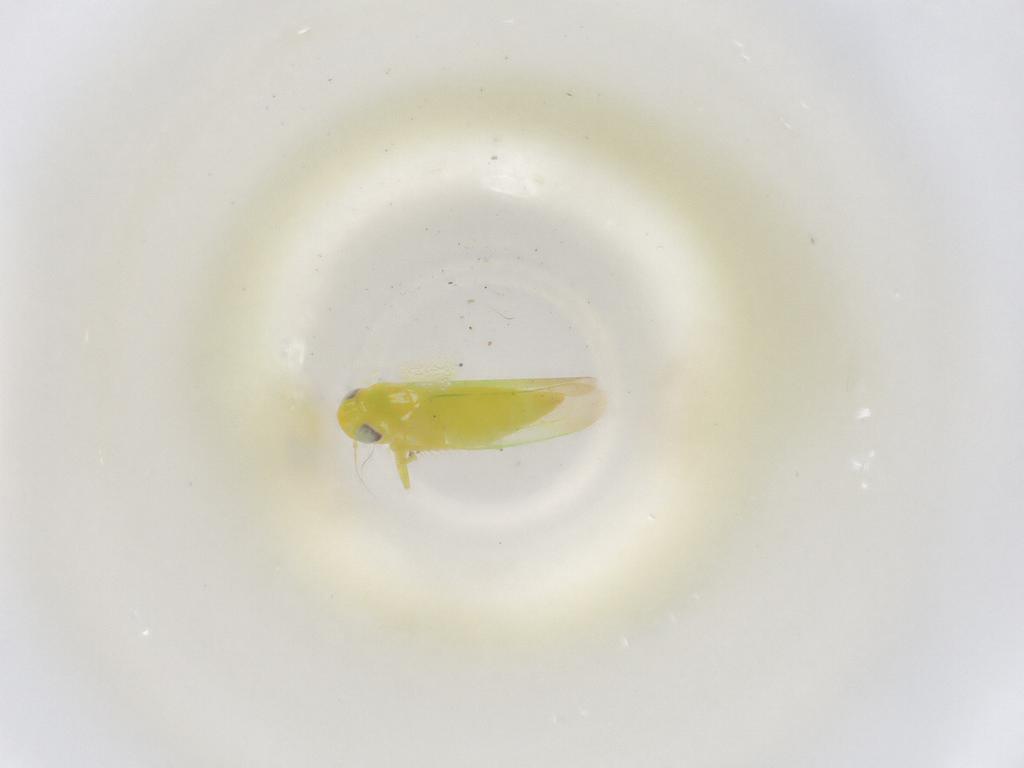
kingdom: Animalia
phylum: Arthropoda
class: Insecta
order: Hemiptera
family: Cicadellidae
